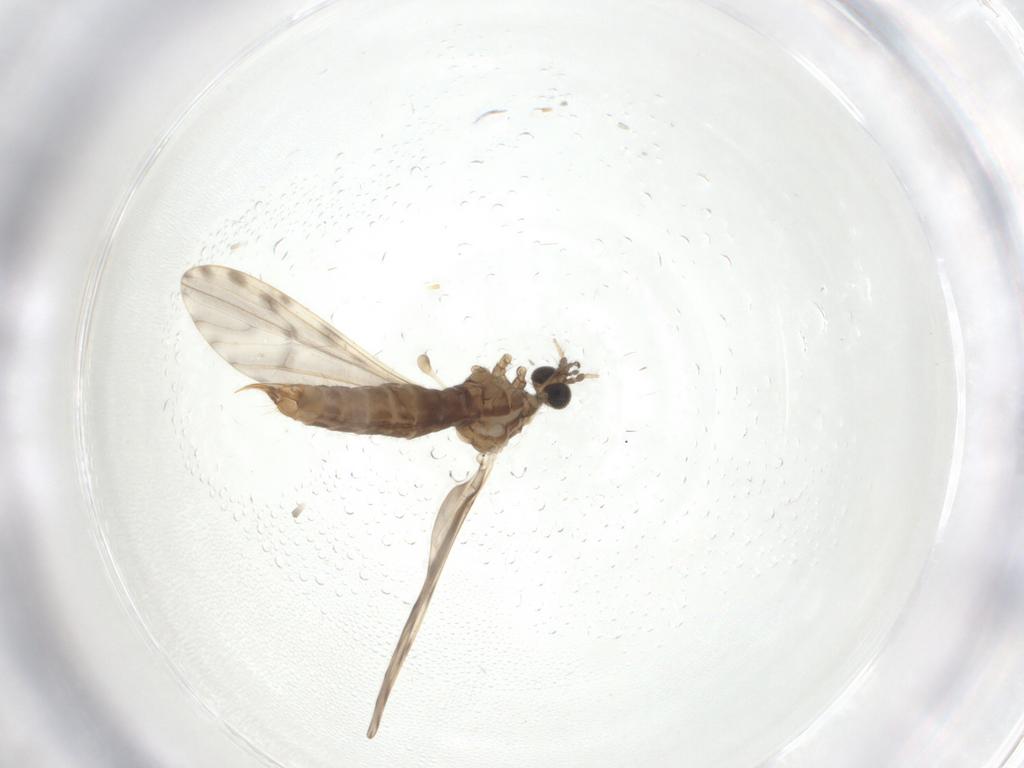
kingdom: Animalia
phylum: Arthropoda
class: Insecta
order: Diptera
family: Limoniidae
